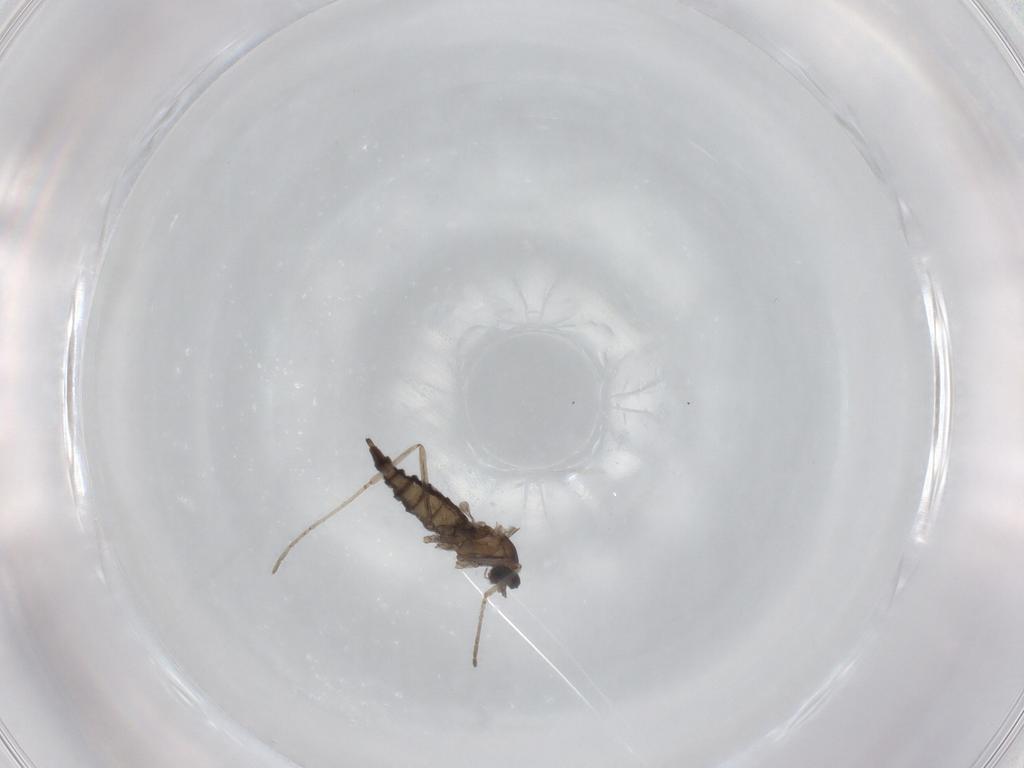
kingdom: Animalia
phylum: Arthropoda
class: Insecta
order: Diptera
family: Cecidomyiidae
